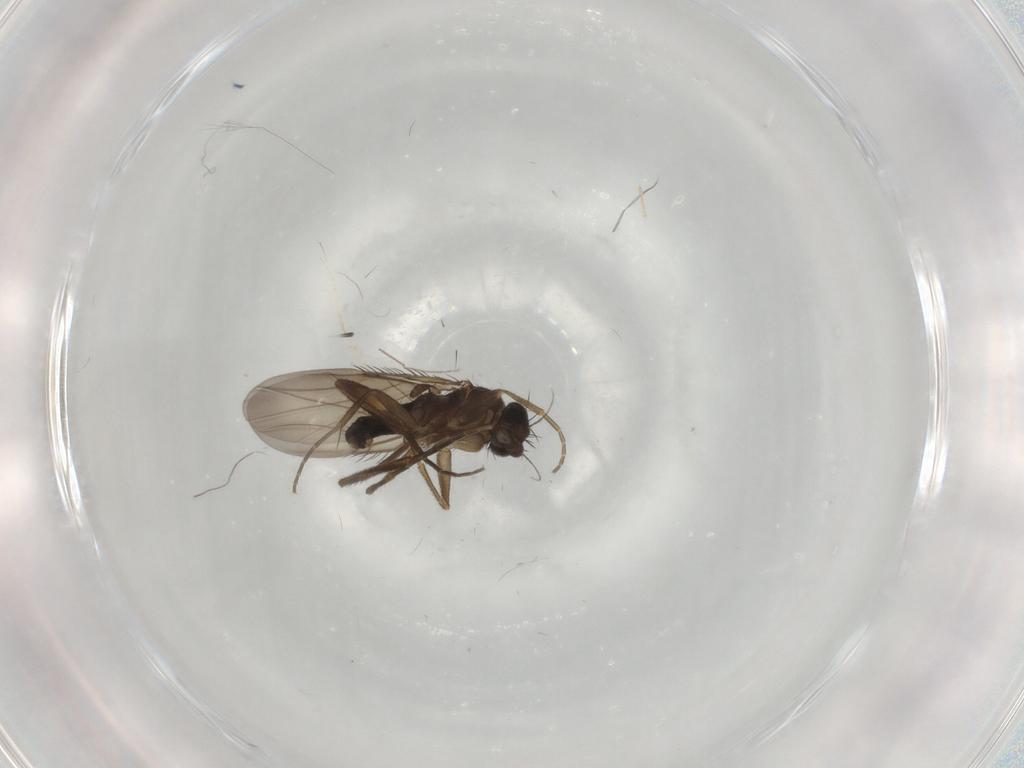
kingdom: Animalia
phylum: Arthropoda
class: Insecta
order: Diptera
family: Phoridae
